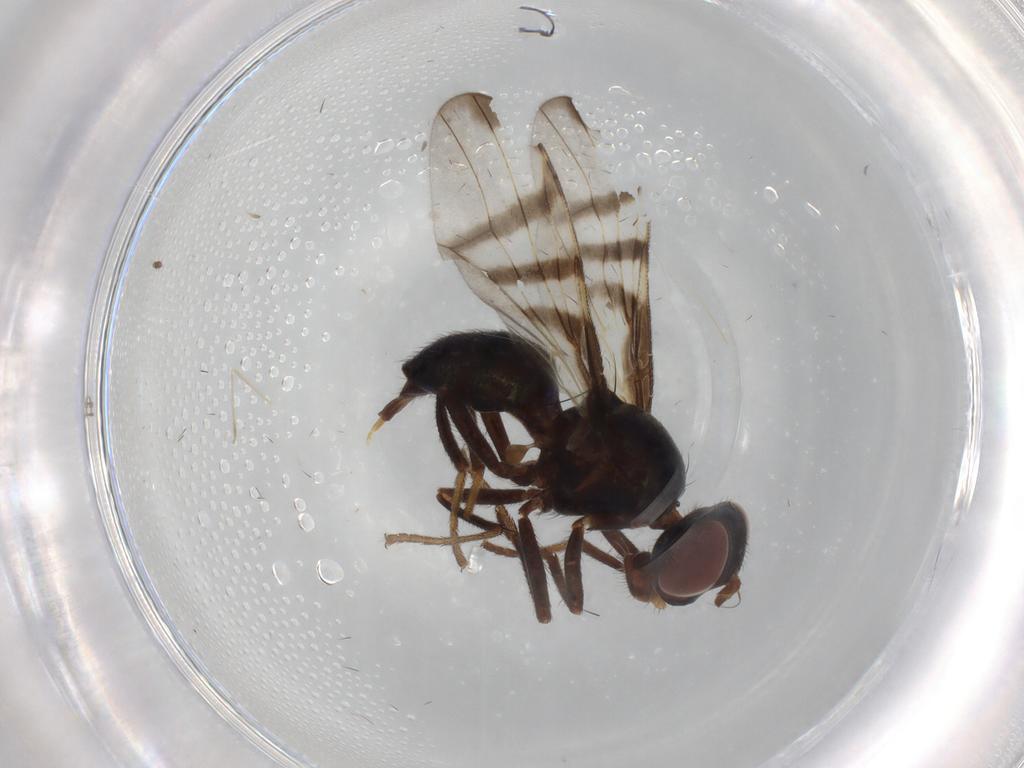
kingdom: Animalia
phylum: Arthropoda
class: Insecta
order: Diptera
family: Cecidomyiidae
